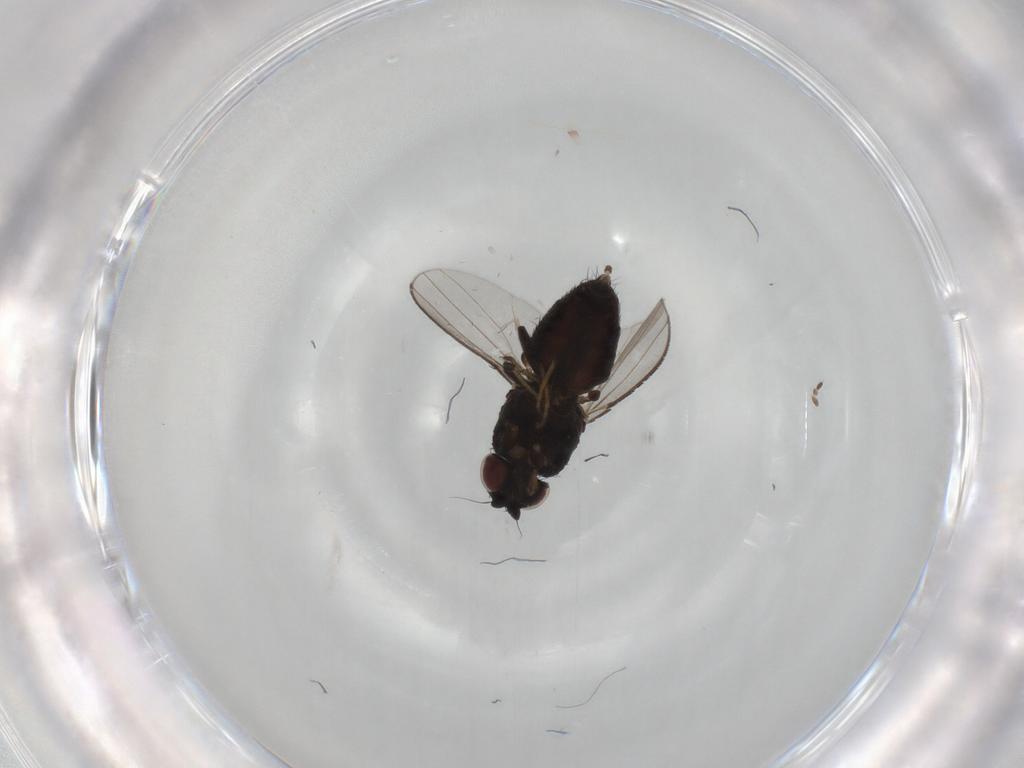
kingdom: Animalia
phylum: Arthropoda
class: Insecta
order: Diptera
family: Milichiidae
